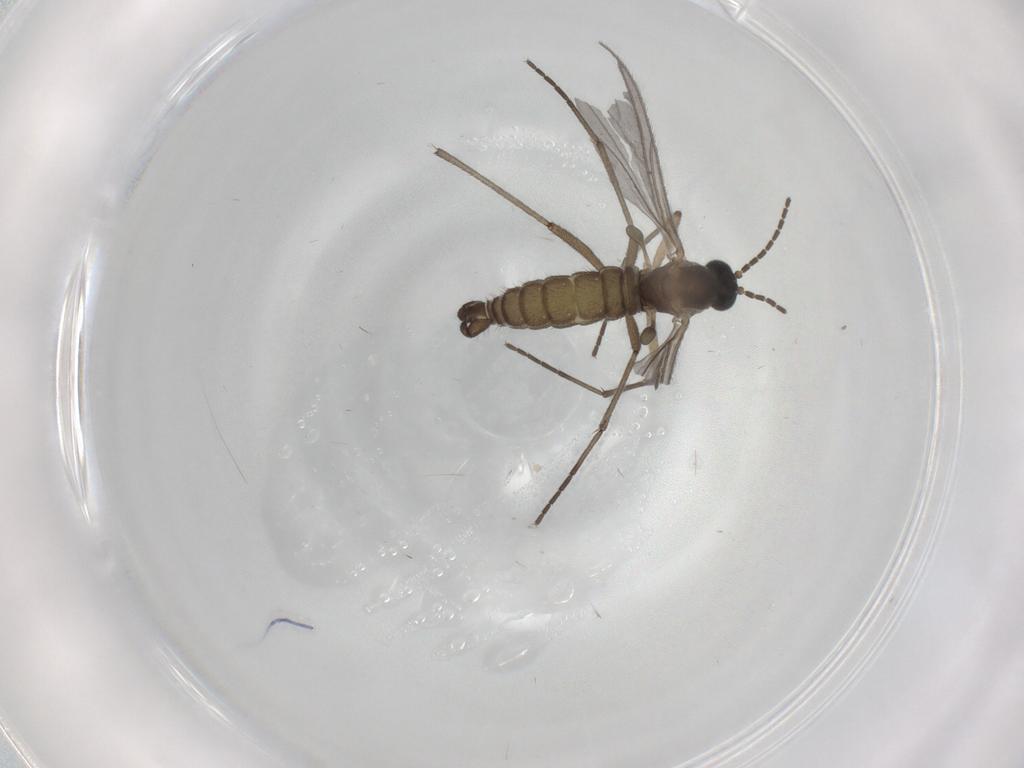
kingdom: Animalia
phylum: Arthropoda
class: Insecta
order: Diptera
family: Sciaridae
